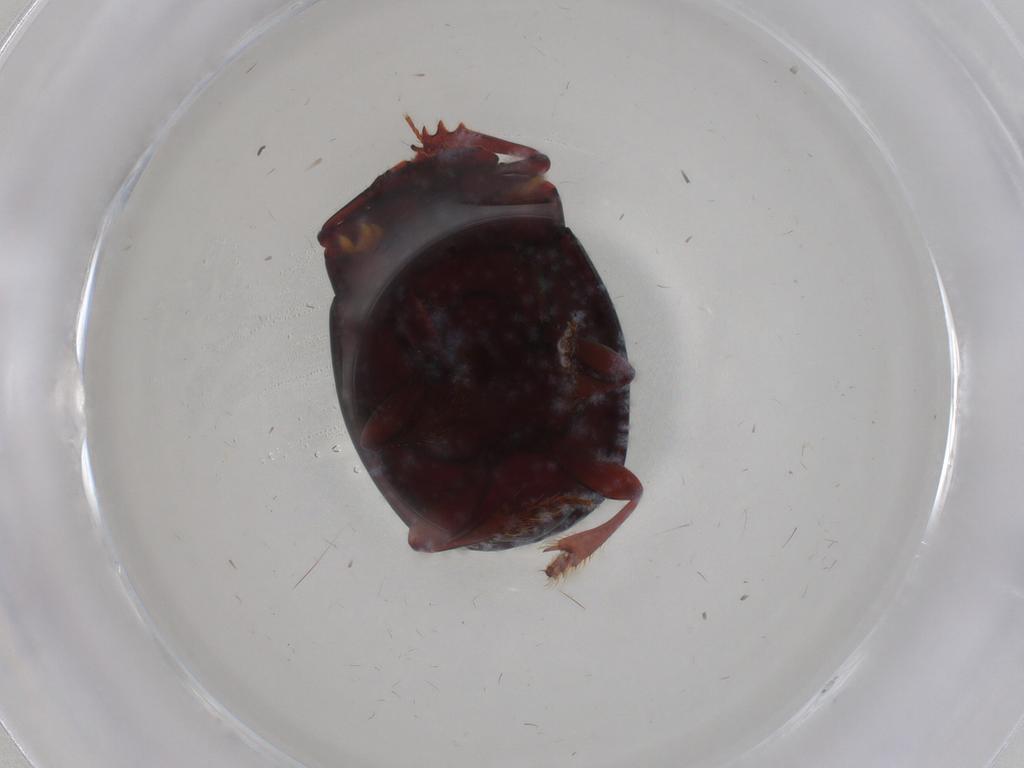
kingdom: Animalia
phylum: Arthropoda
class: Insecta
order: Coleoptera
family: Scarabaeidae
